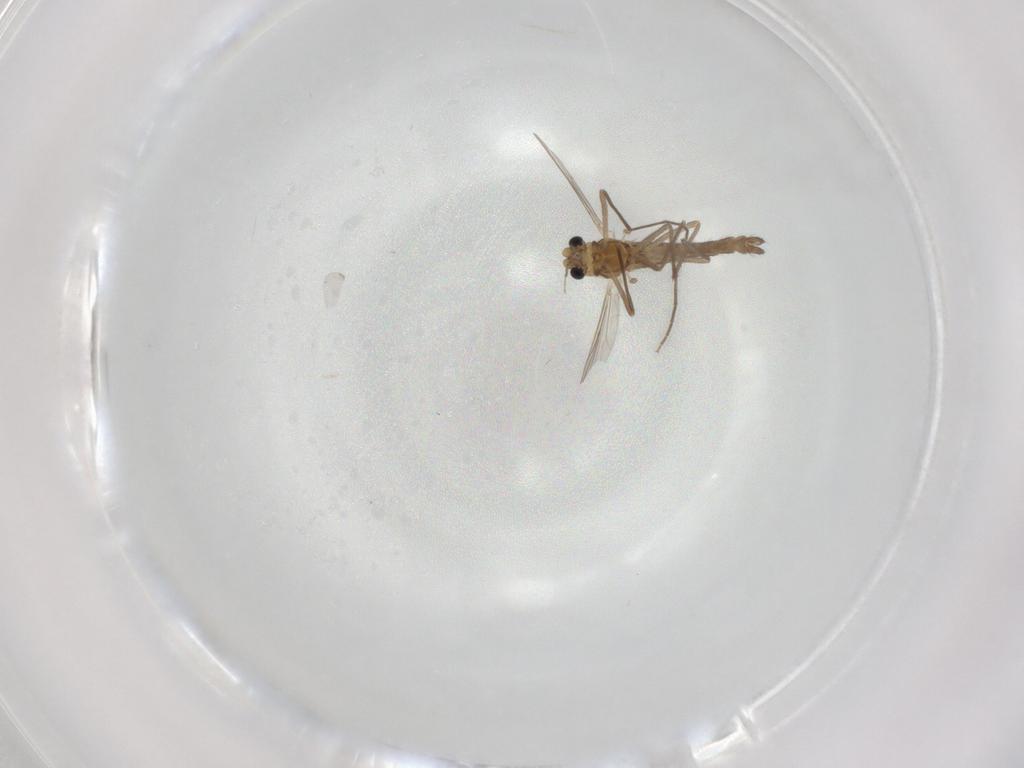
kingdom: Animalia
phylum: Arthropoda
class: Insecta
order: Diptera
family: Chironomidae
